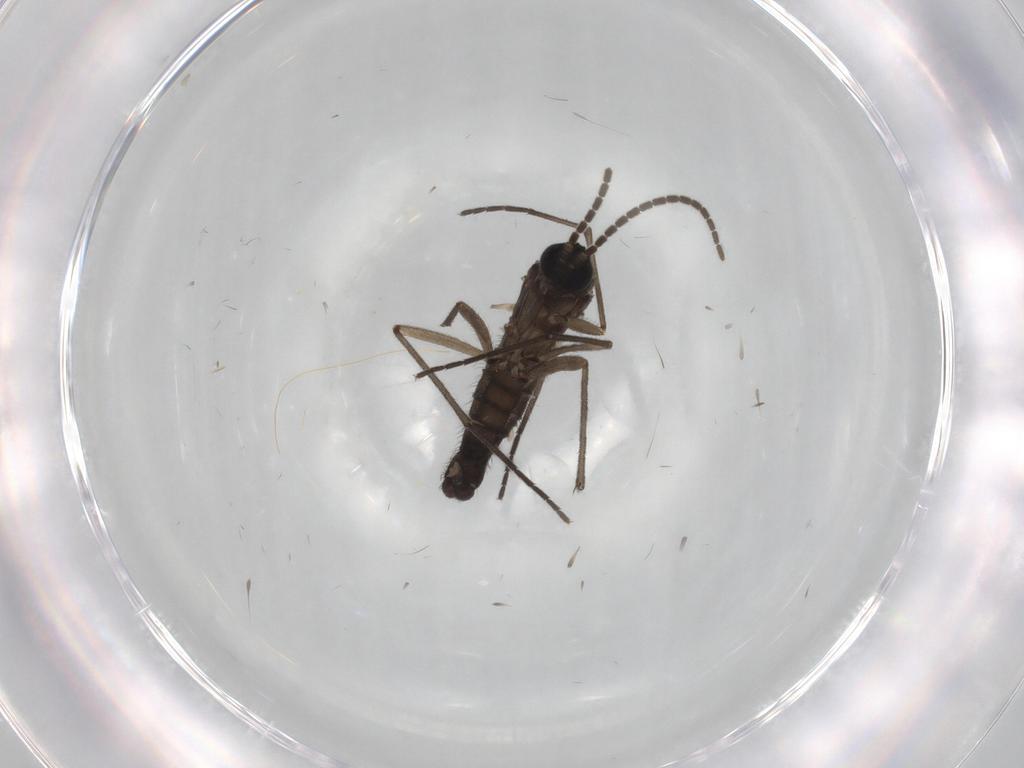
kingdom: Animalia
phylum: Arthropoda
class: Insecta
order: Diptera
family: Sciaridae
